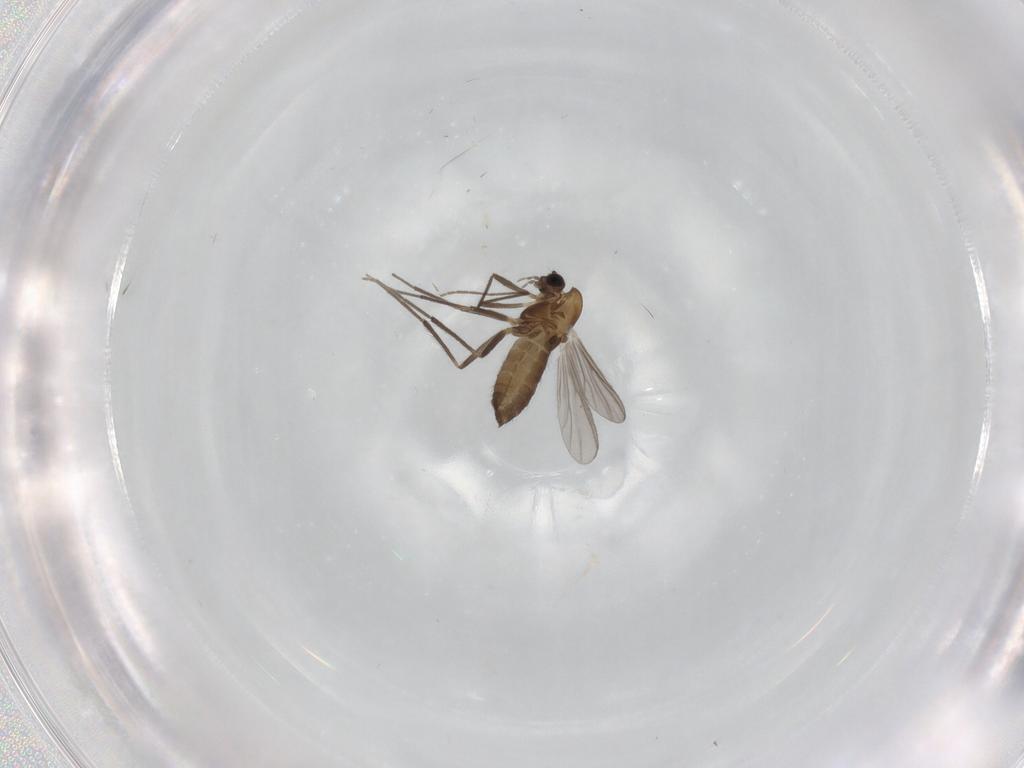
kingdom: Animalia
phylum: Arthropoda
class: Insecta
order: Diptera
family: Chironomidae
